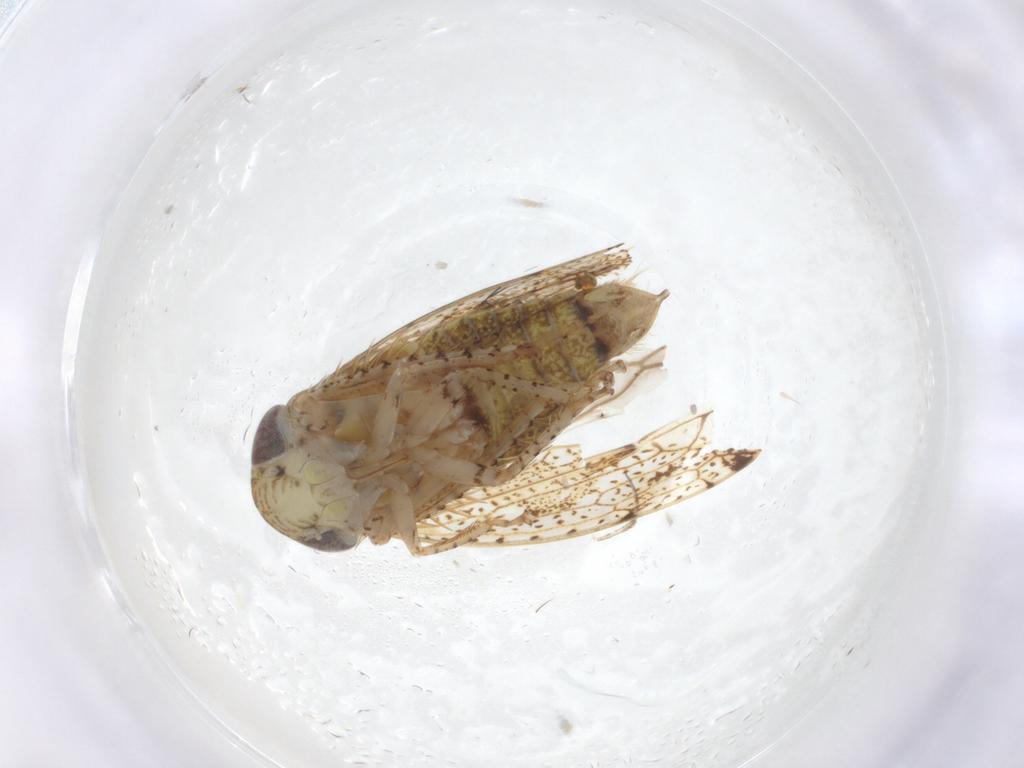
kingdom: Animalia
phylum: Arthropoda
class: Insecta
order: Hemiptera
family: Cicadellidae
